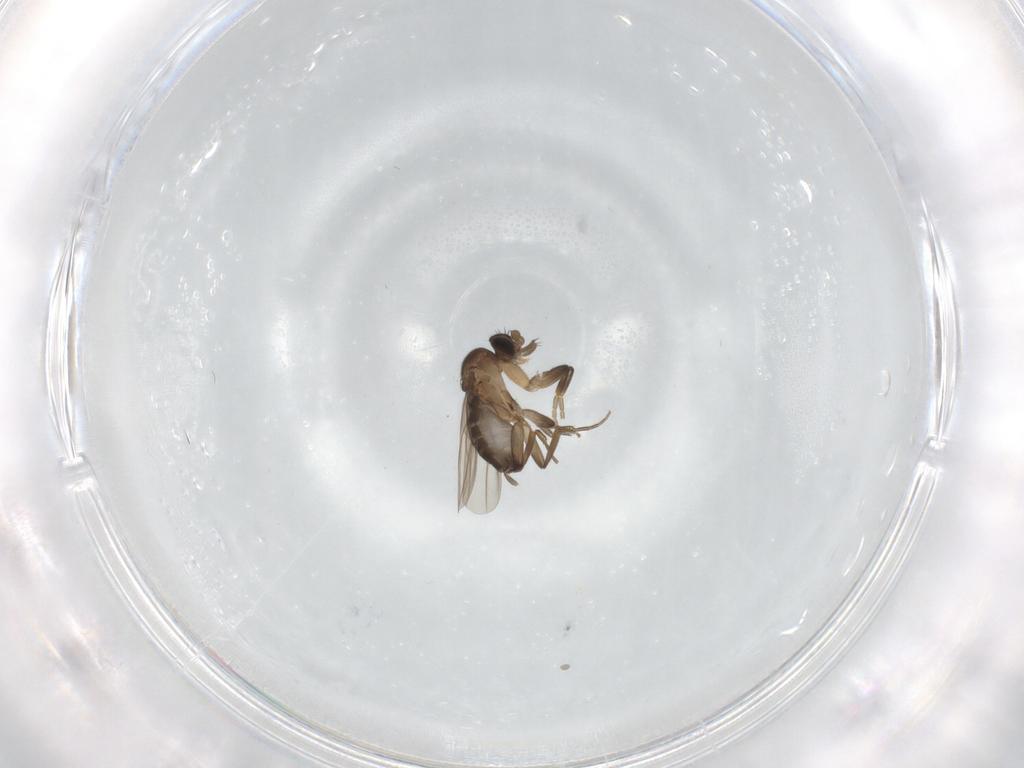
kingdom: Animalia
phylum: Arthropoda
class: Insecta
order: Diptera
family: Phoridae
